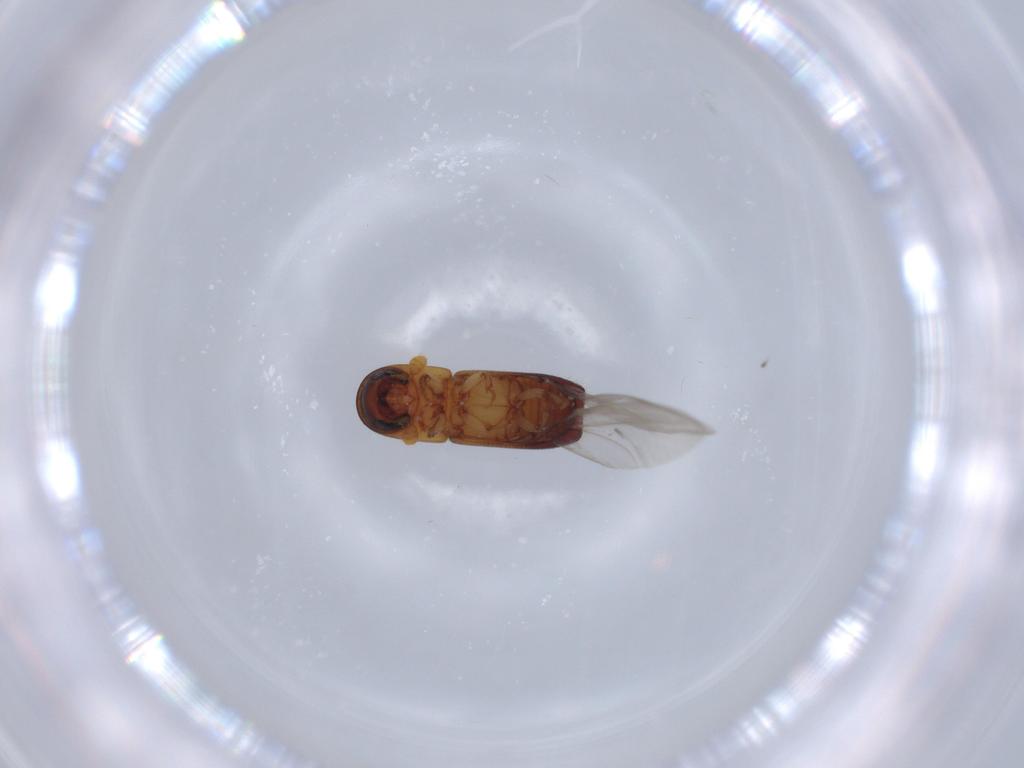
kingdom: Animalia
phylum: Arthropoda
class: Insecta
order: Coleoptera
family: Curculionidae
